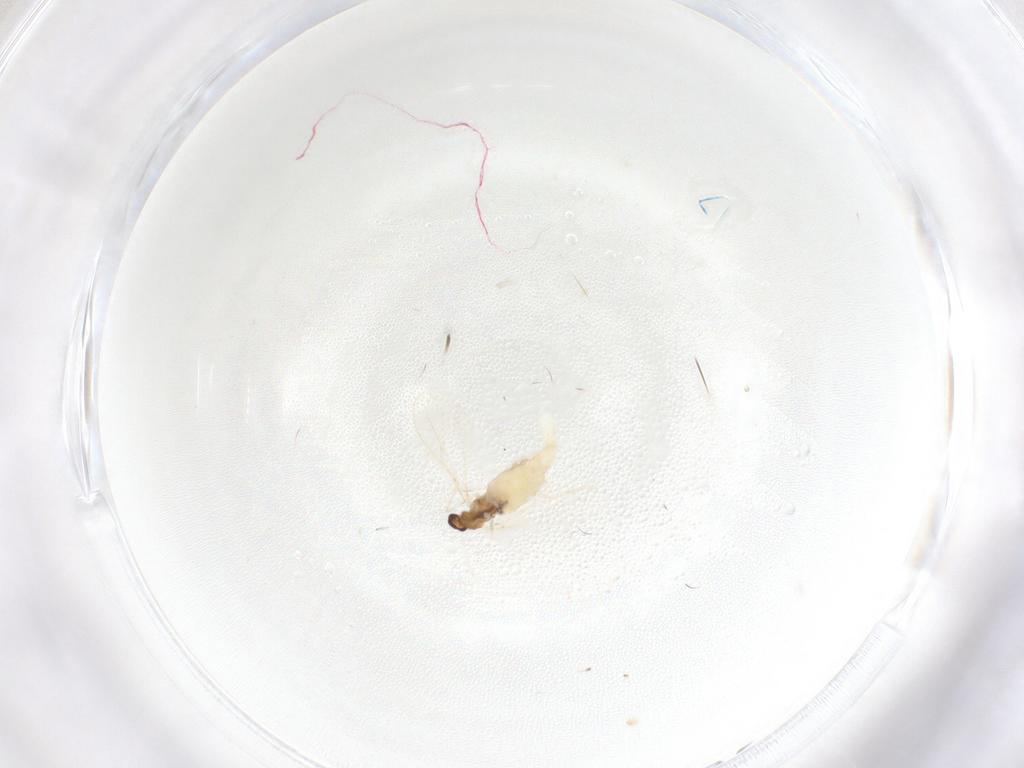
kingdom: Animalia
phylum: Arthropoda
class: Insecta
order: Diptera
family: Cecidomyiidae
